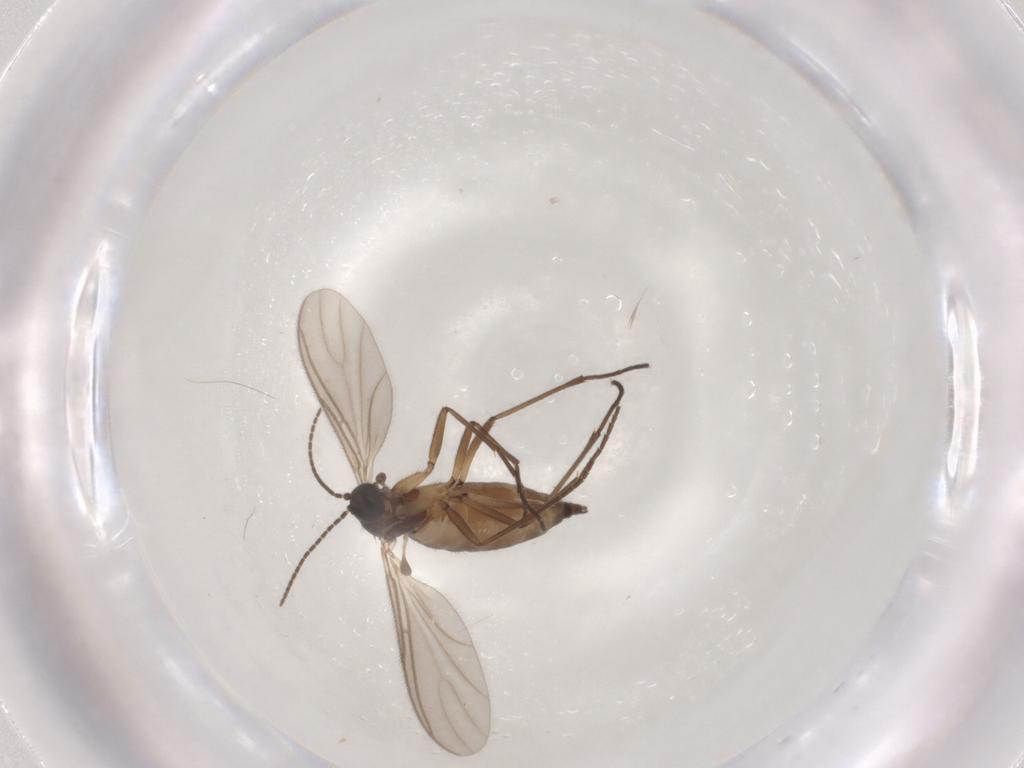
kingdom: Animalia
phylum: Arthropoda
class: Insecta
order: Diptera
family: Sciaridae
